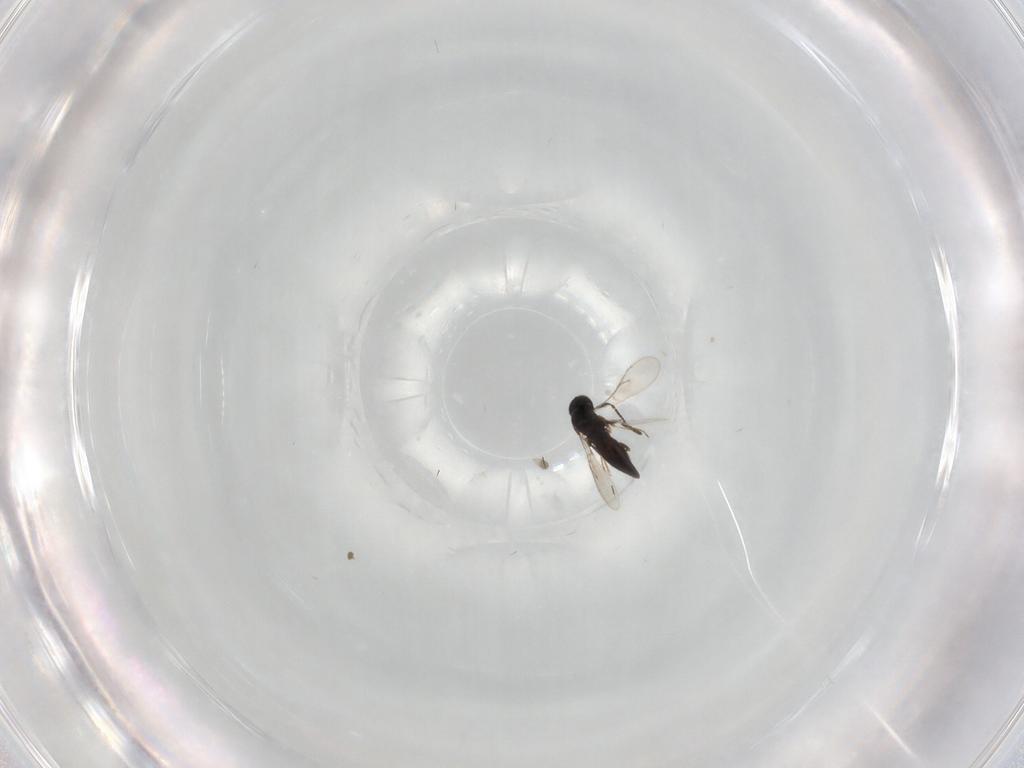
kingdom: Animalia
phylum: Arthropoda
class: Insecta
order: Hymenoptera
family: Scelionidae
